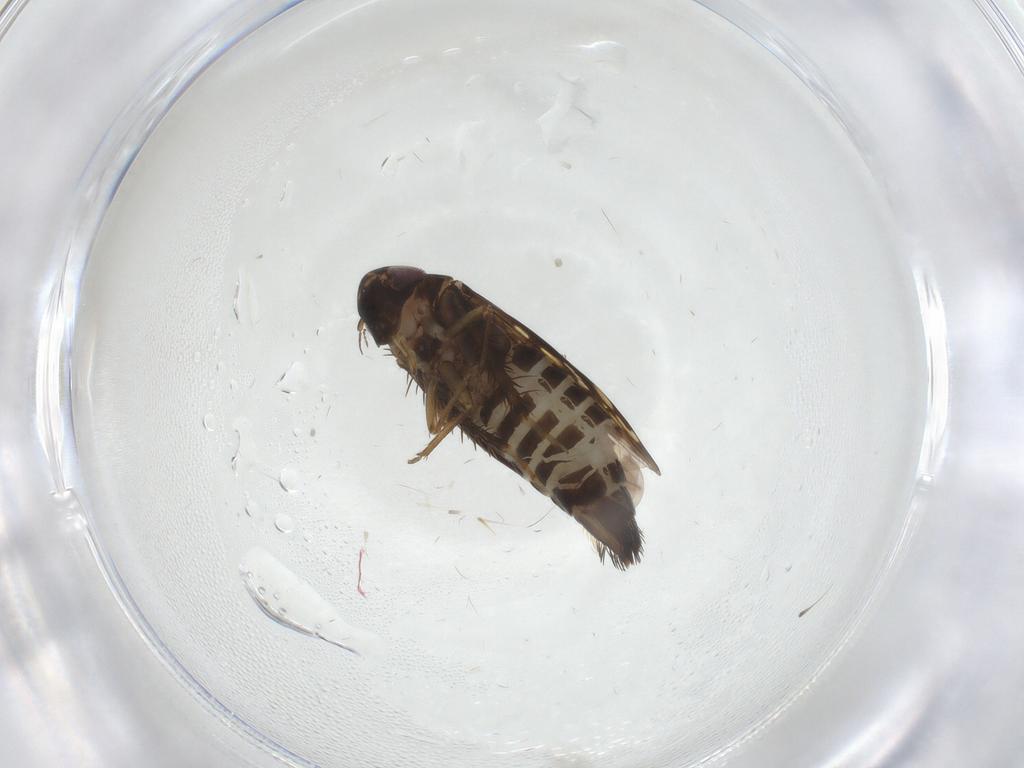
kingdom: Animalia
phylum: Arthropoda
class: Insecta
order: Hemiptera
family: Cicadellidae
